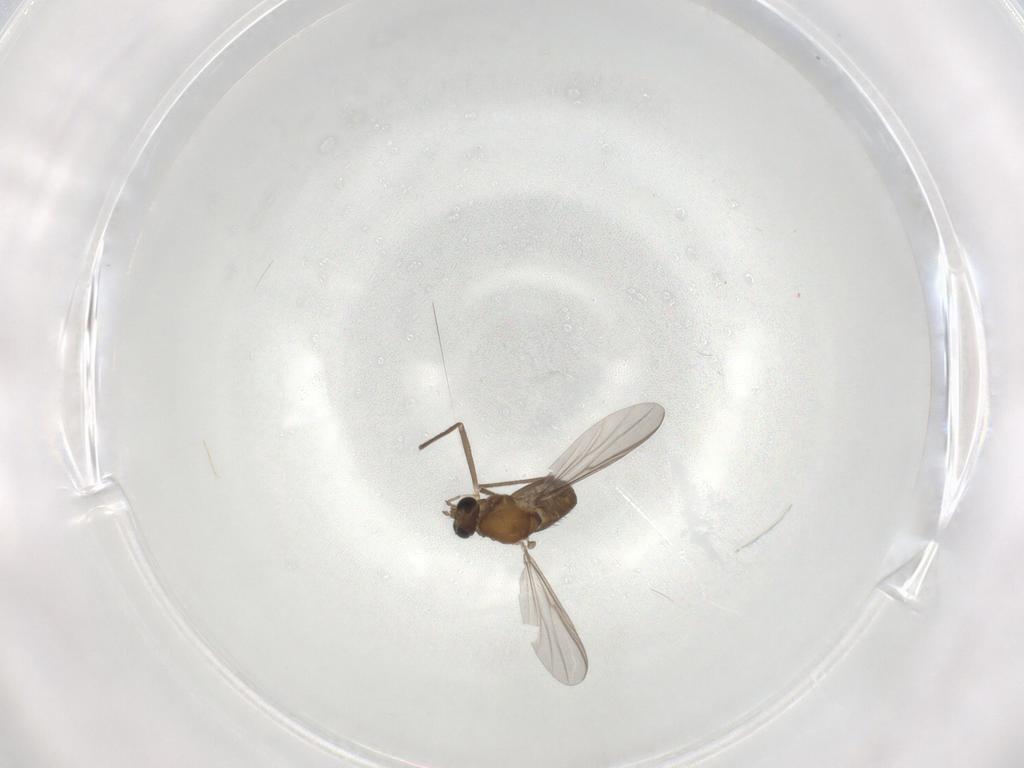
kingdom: Animalia
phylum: Arthropoda
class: Insecta
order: Diptera
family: Chironomidae
